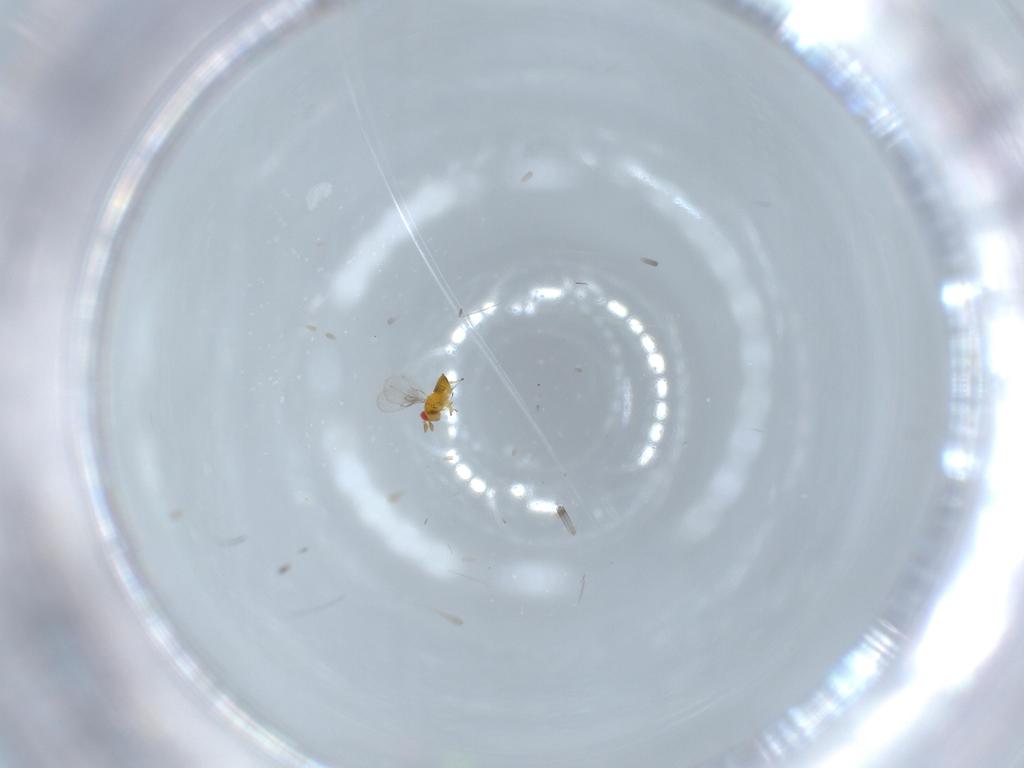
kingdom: Animalia
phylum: Arthropoda
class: Insecta
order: Hymenoptera
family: Trichogrammatidae
